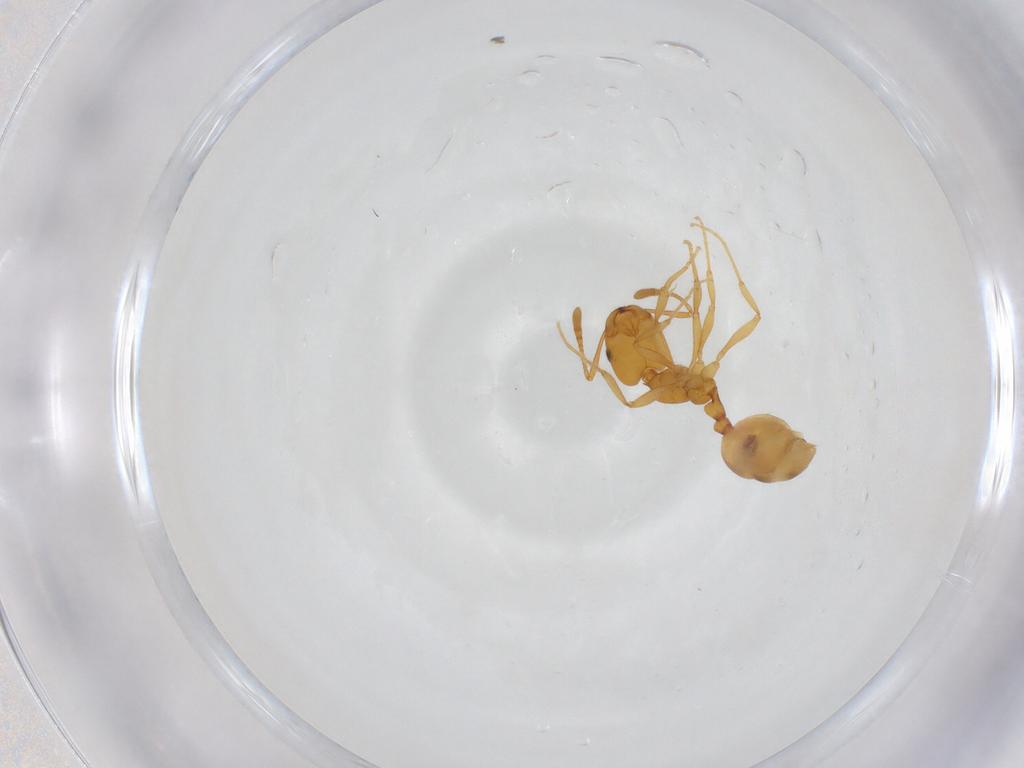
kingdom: Animalia
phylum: Arthropoda
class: Insecta
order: Hymenoptera
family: Formicidae
